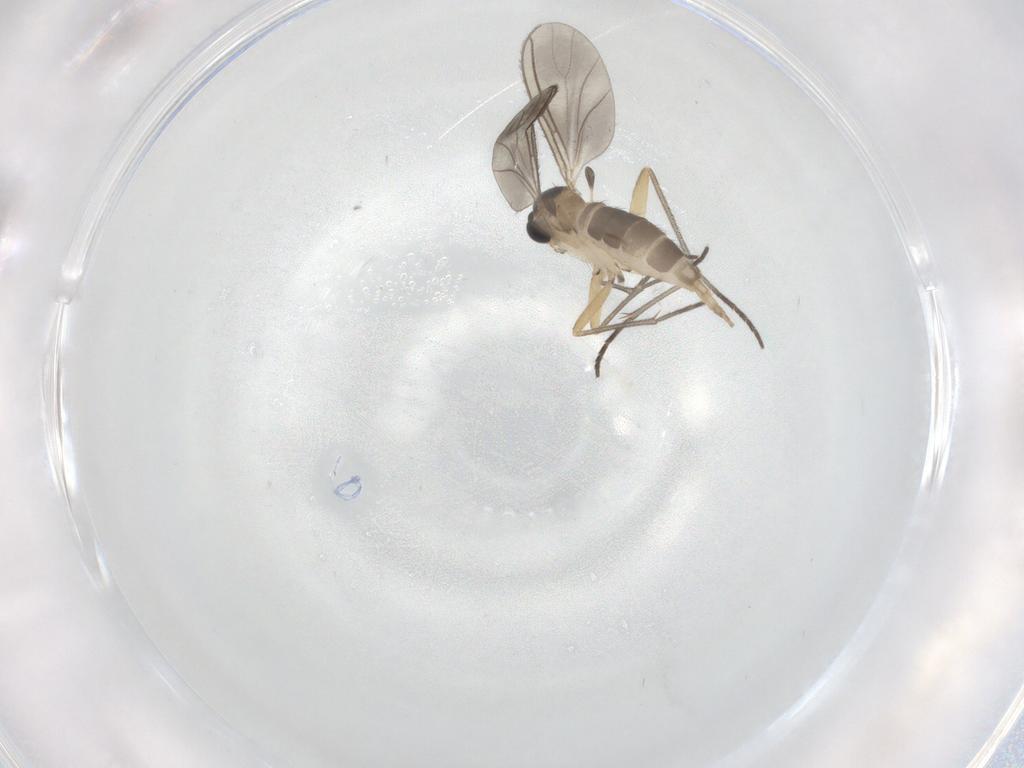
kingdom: Animalia
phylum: Arthropoda
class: Insecta
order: Diptera
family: Sciaridae
